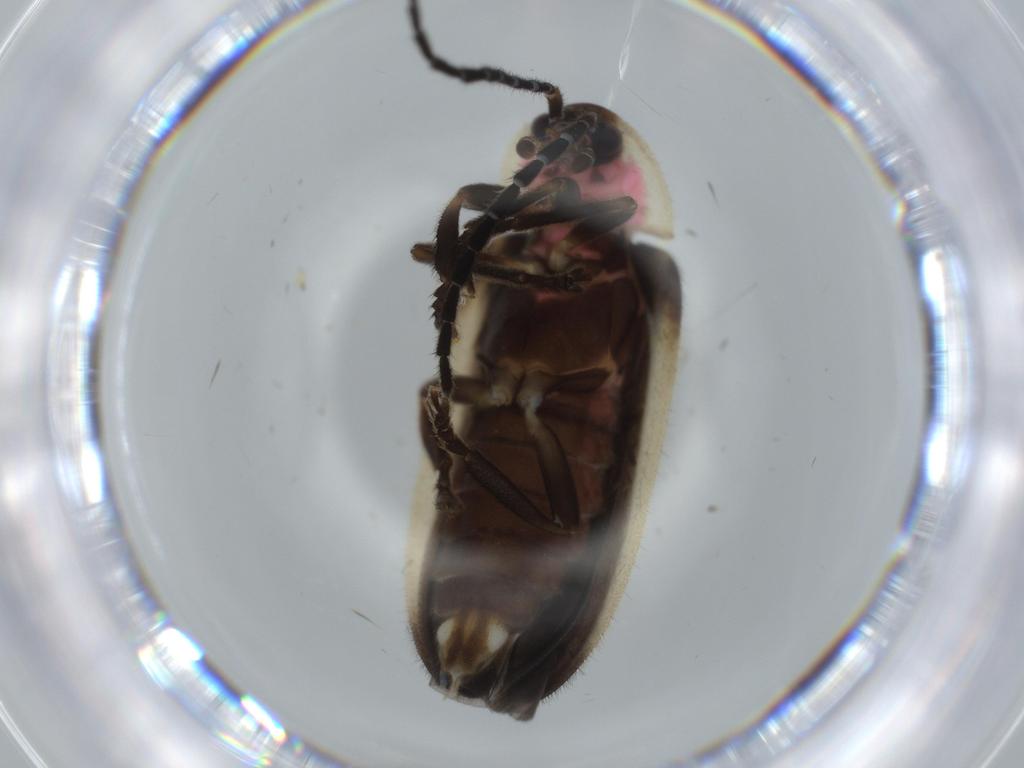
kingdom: Animalia
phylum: Arthropoda
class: Insecta
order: Coleoptera
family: Lampyridae
